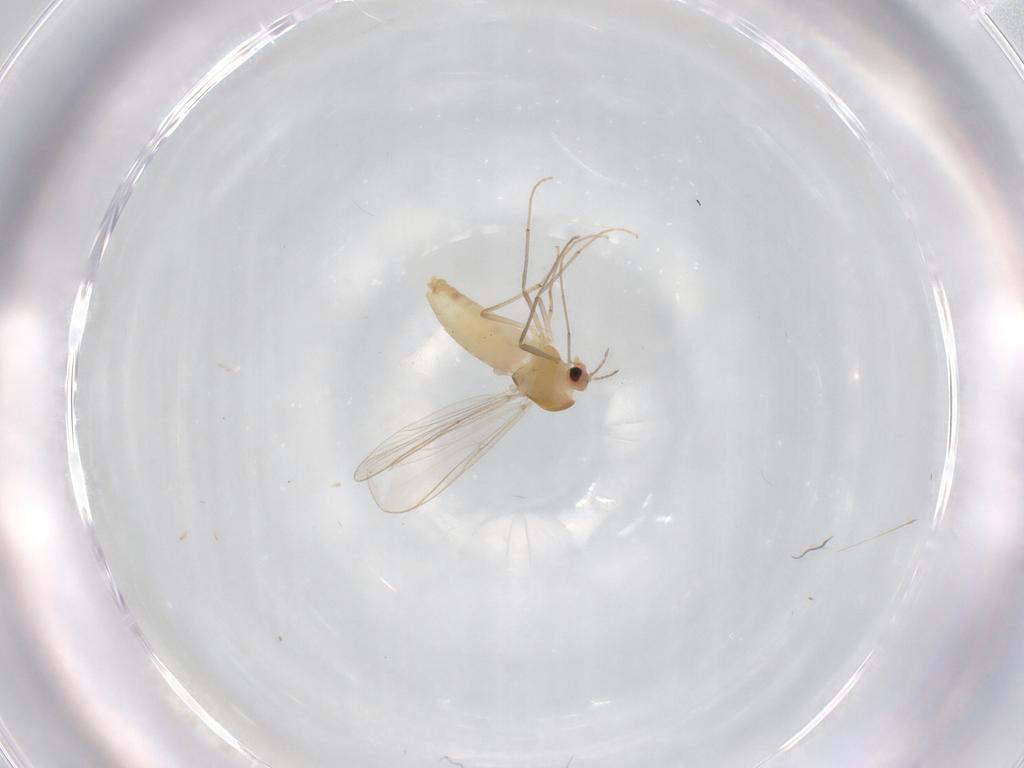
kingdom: Animalia
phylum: Arthropoda
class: Insecta
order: Diptera
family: Chironomidae
